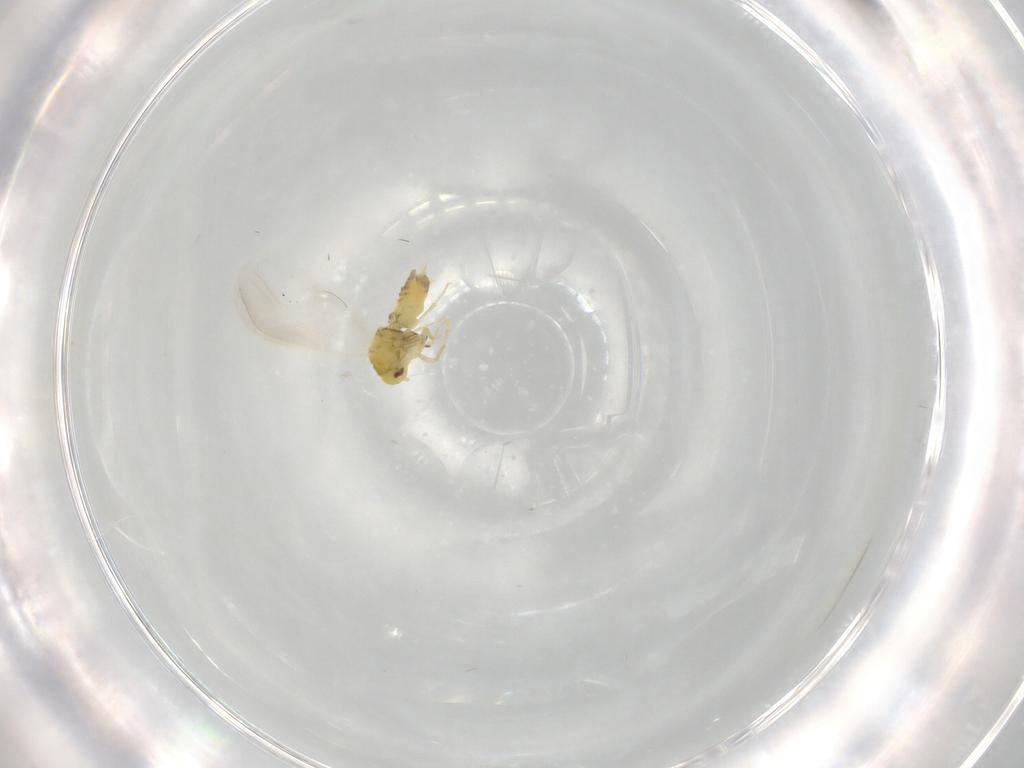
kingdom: Animalia
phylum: Arthropoda
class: Insecta
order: Hemiptera
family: Aleyrodidae
